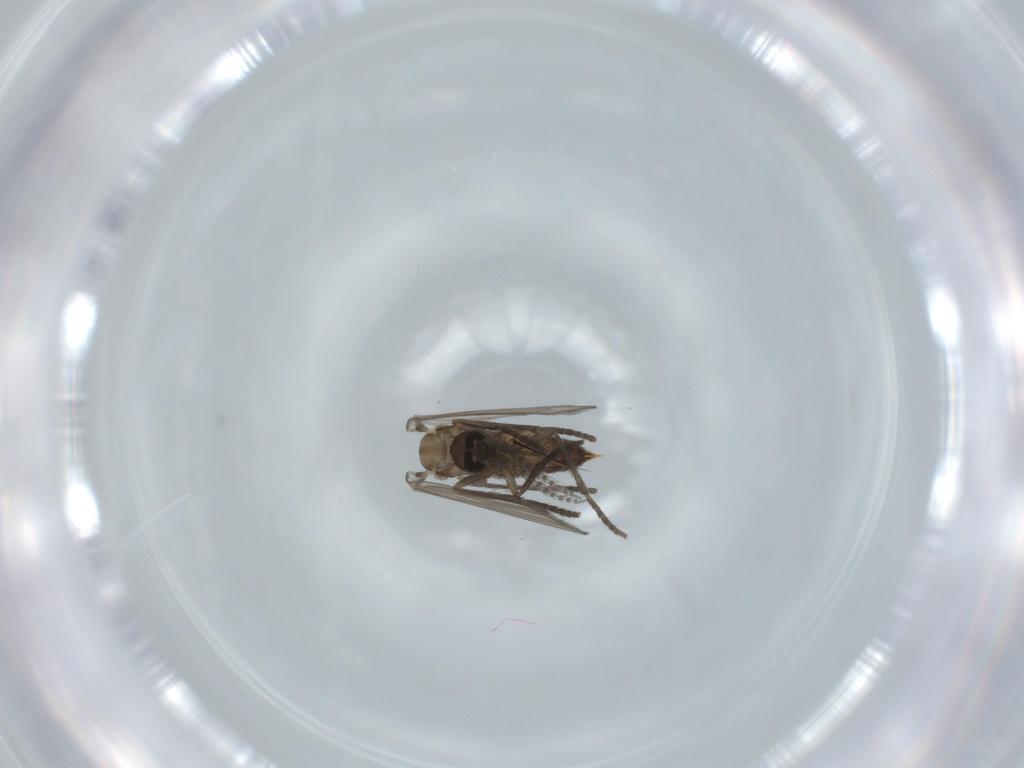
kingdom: Animalia
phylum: Arthropoda
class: Insecta
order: Diptera
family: Psychodidae
